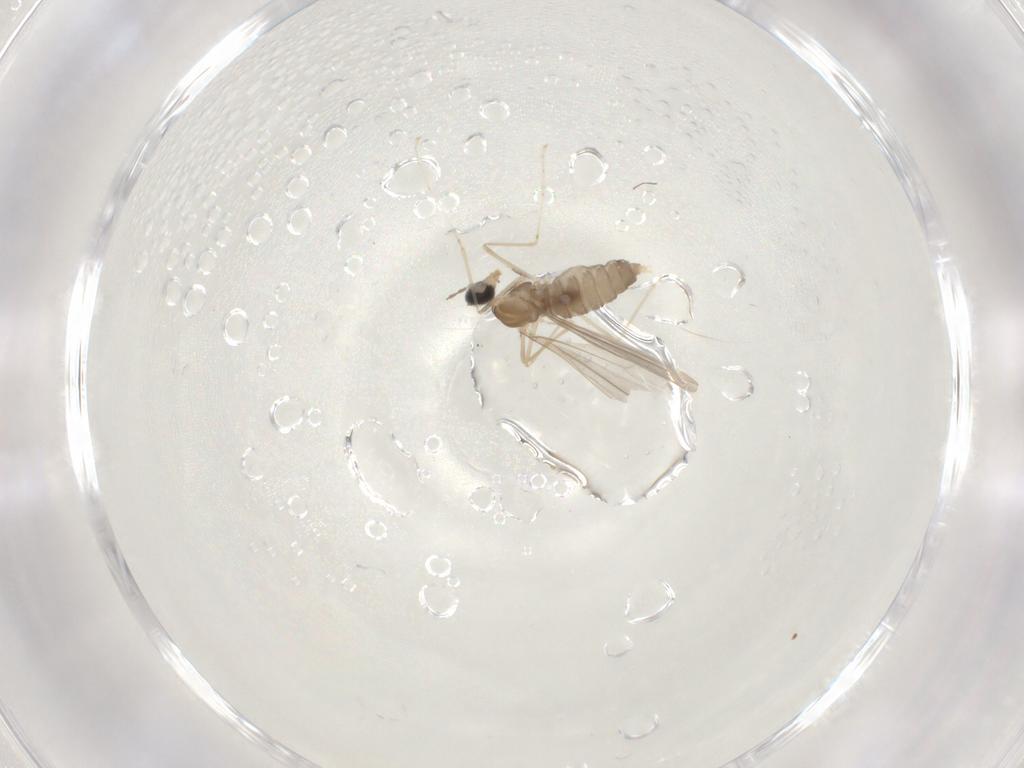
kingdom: Animalia
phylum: Arthropoda
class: Insecta
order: Diptera
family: Cecidomyiidae
